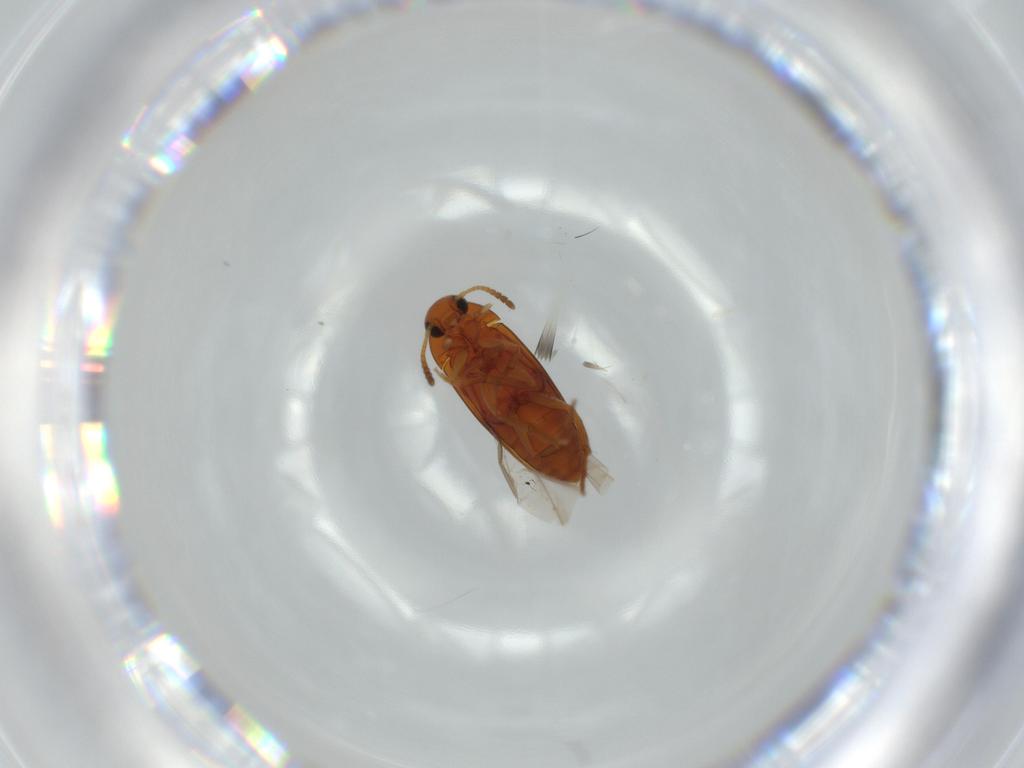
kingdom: Animalia
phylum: Arthropoda
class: Insecta
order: Coleoptera
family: Scraptiidae
